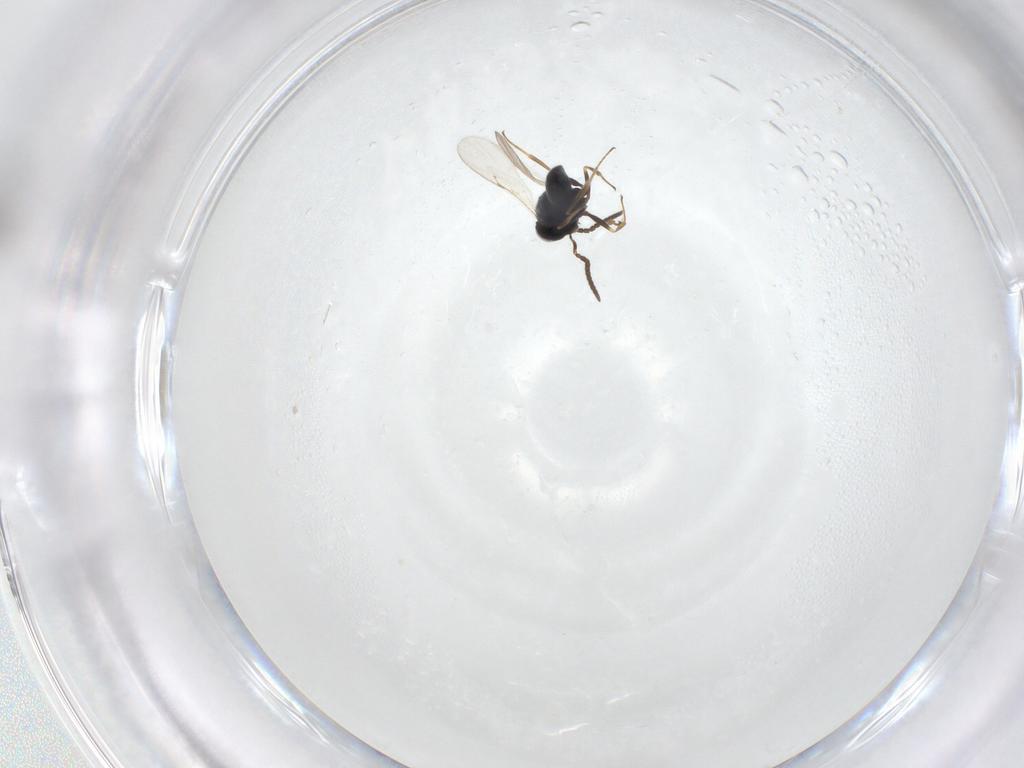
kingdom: Animalia
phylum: Arthropoda
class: Insecta
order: Hymenoptera
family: Scelionidae
